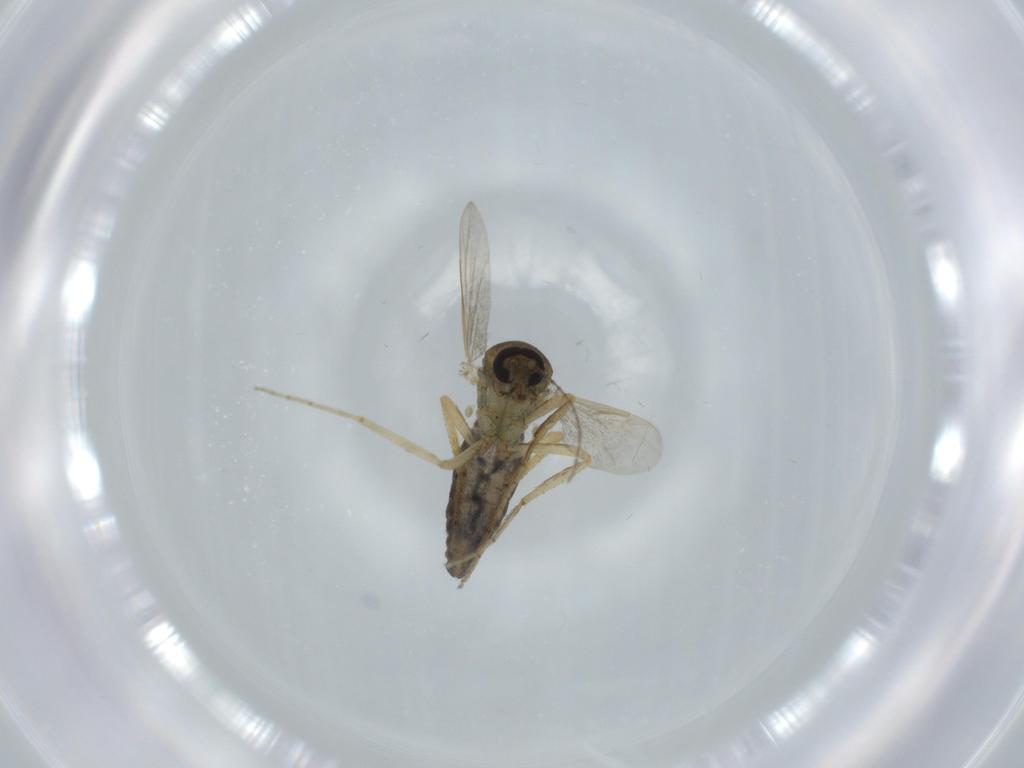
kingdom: Animalia
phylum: Arthropoda
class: Insecta
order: Diptera
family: Ceratopogonidae
